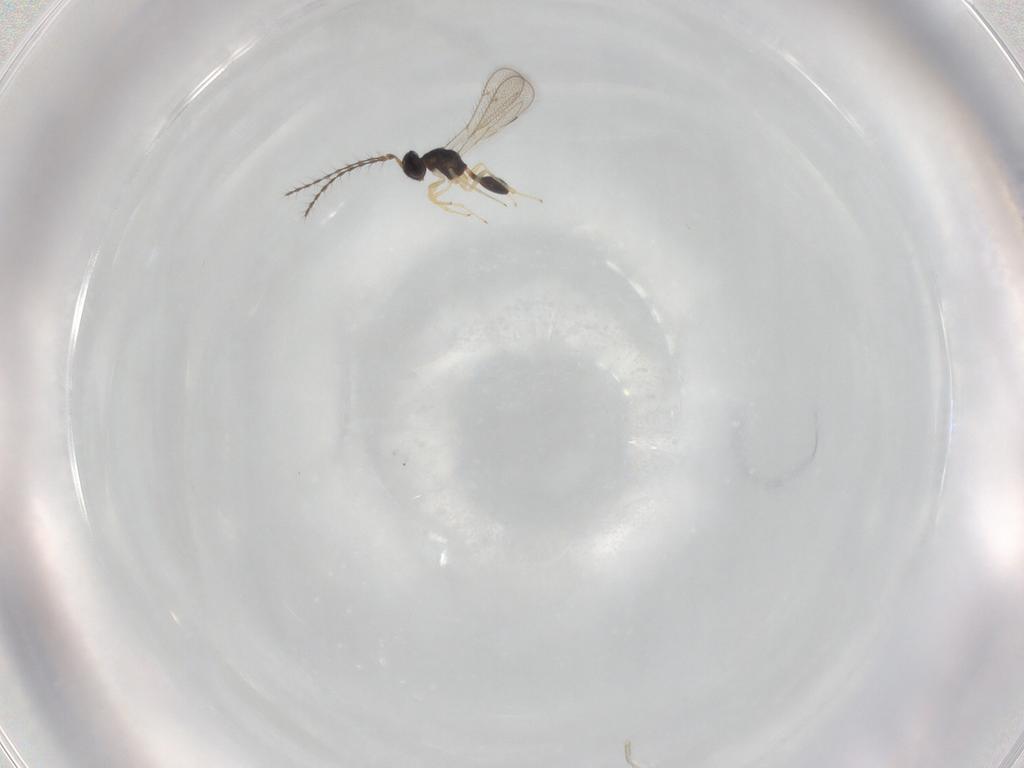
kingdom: Animalia
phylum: Arthropoda
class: Insecta
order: Hymenoptera
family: Diparidae
